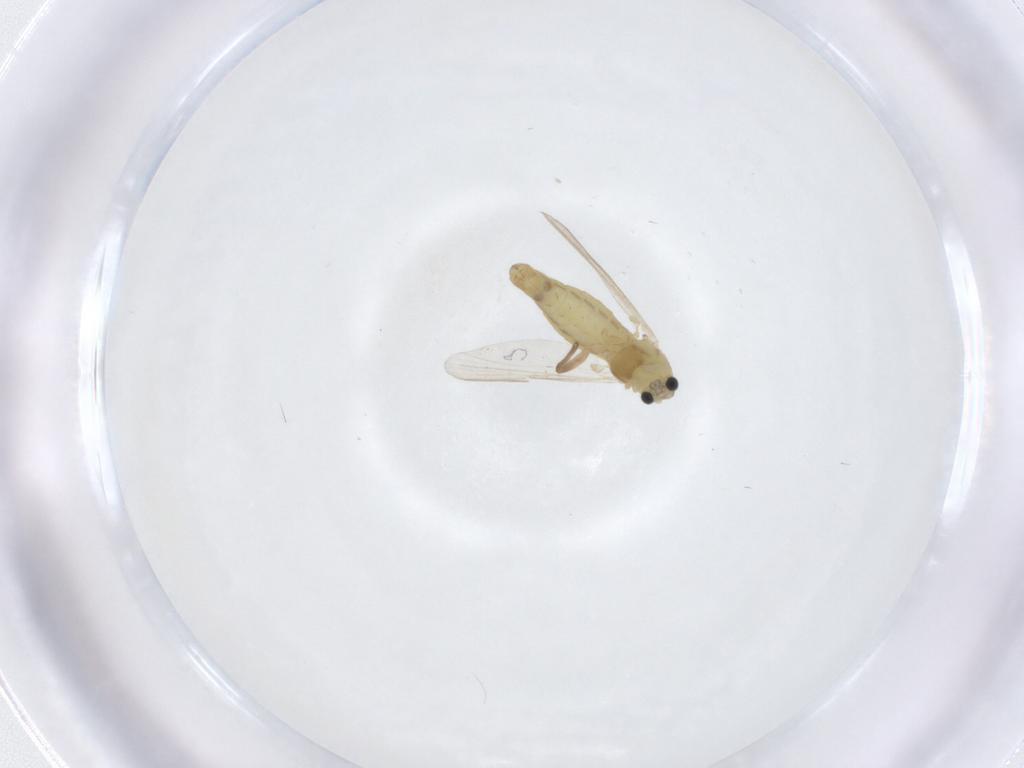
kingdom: Animalia
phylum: Arthropoda
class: Insecta
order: Diptera
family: Chironomidae
